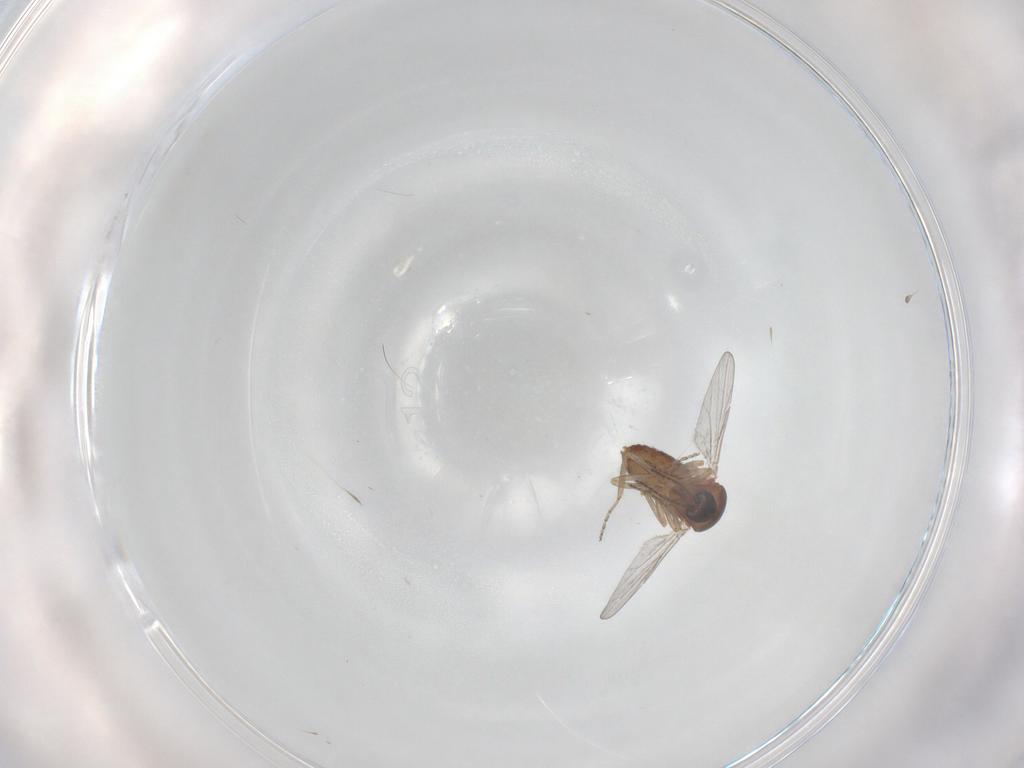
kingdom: Animalia
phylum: Arthropoda
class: Insecta
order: Diptera
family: Ceratopogonidae
